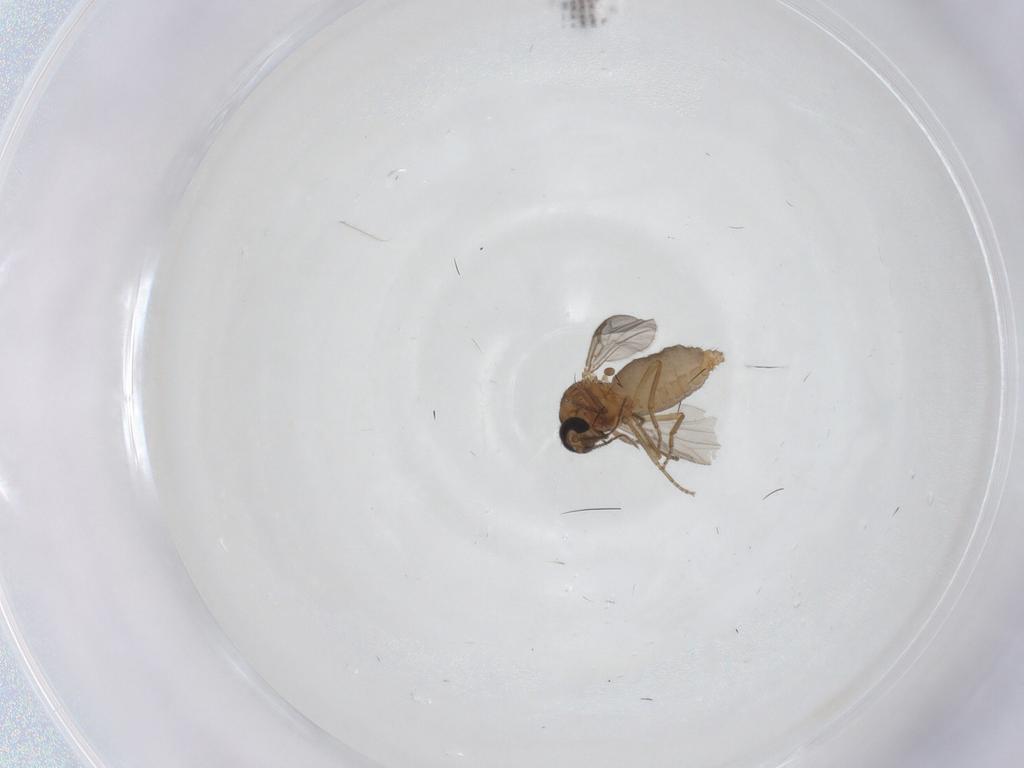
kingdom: Animalia
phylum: Arthropoda
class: Insecta
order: Diptera
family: Ceratopogonidae
